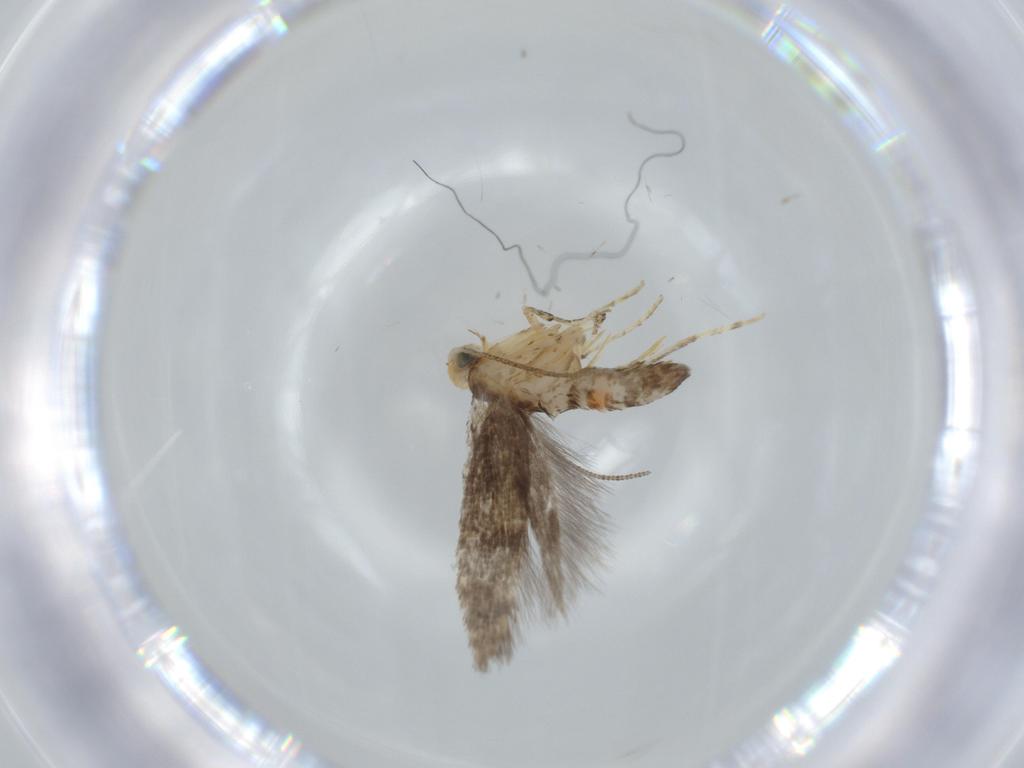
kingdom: Animalia
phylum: Arthropoda
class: Insecta
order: Lepidoptera
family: Argyresthiidae
